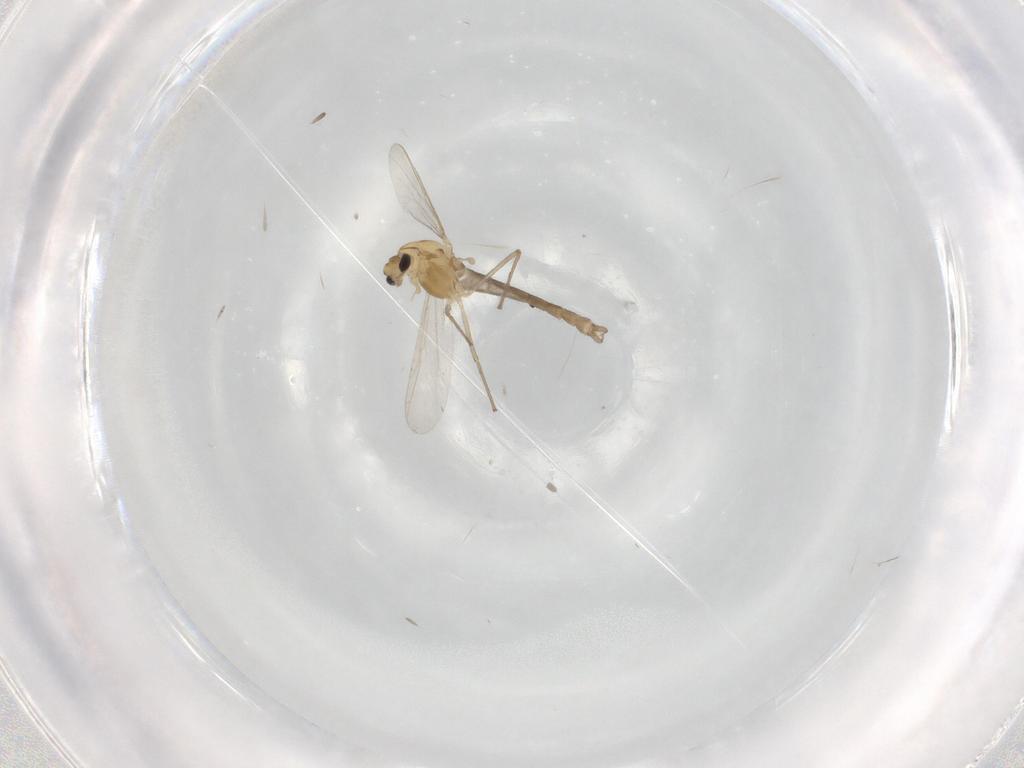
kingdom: Animalia
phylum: Arthropoda
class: Insecta
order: Diptera
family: Chironomidae
